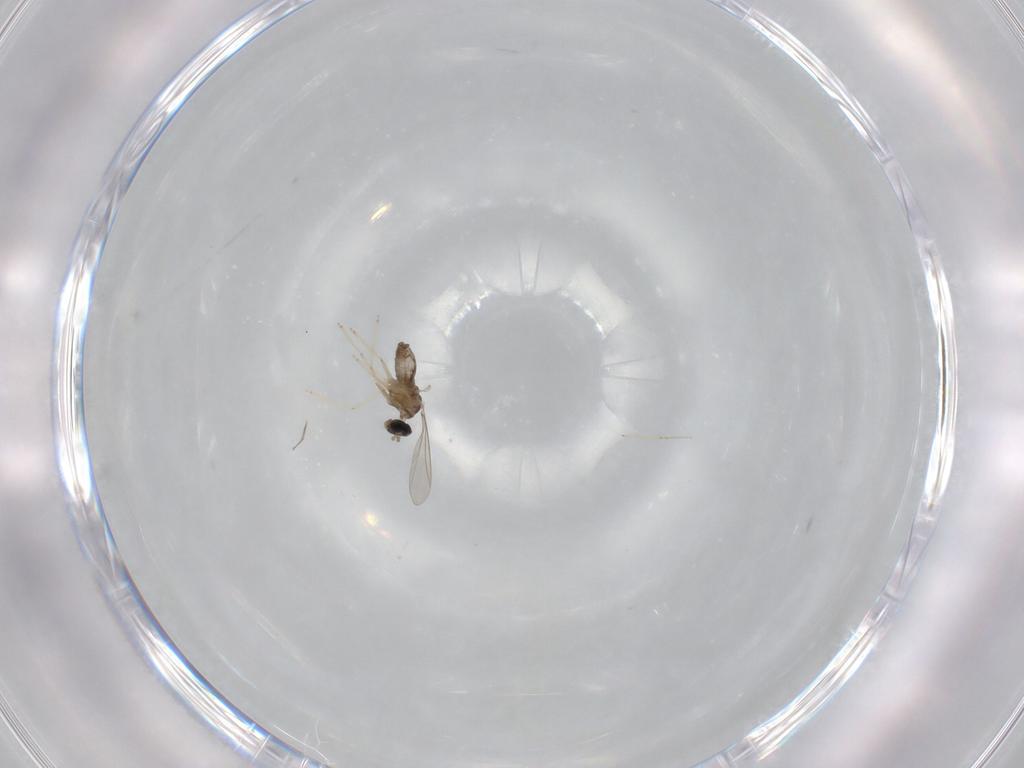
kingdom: Animalia
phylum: Arthropoda
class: Insecta
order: Diptera
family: Cecidomyiidae
